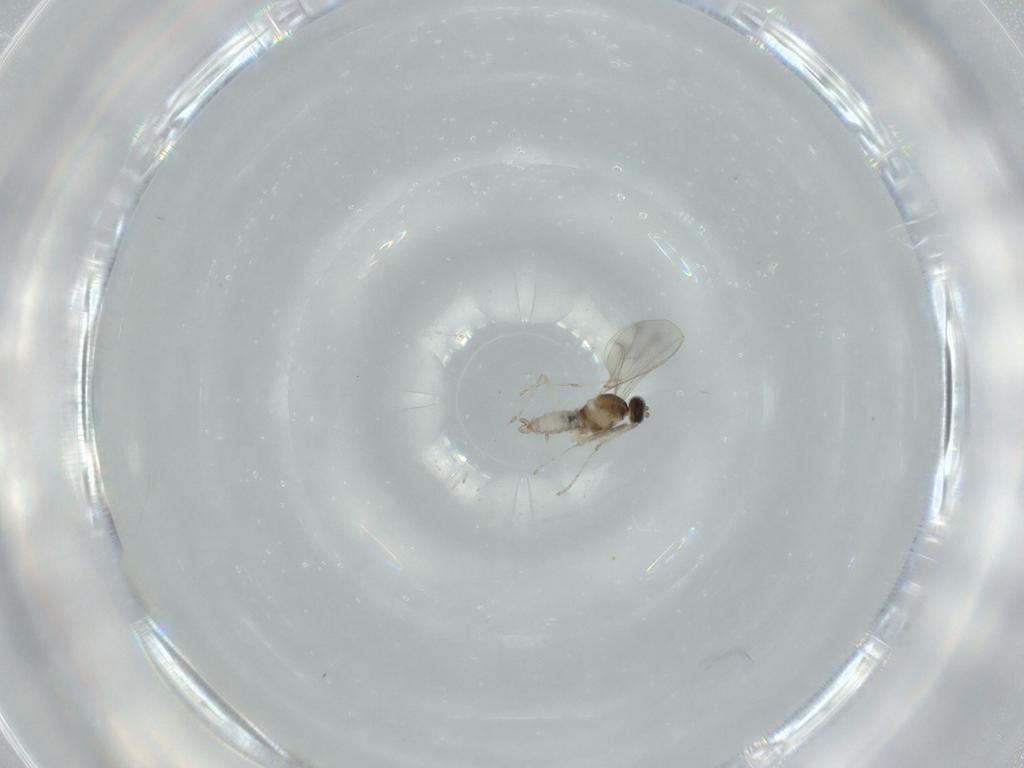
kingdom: Animalia
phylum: Arthropoda
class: Insecta
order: Diptera
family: Cecidomyiidae
